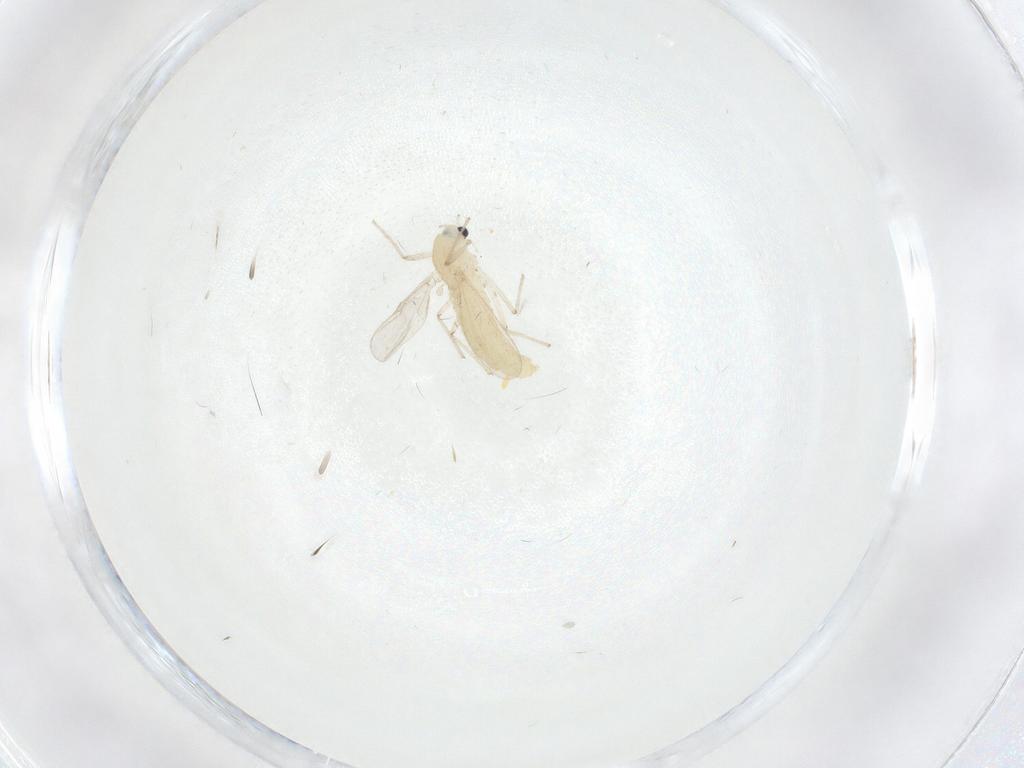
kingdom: Animalia
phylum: Arthropoda
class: Insecta
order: Diptera
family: Chironomidae
